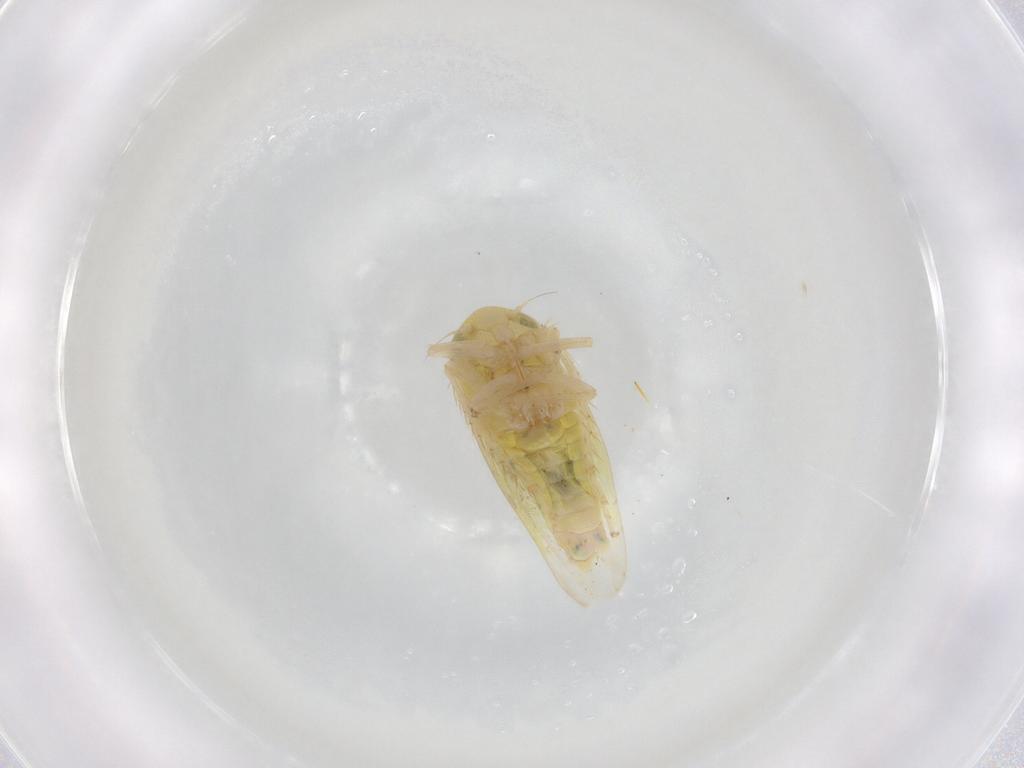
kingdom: Animalia
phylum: Arthropoda
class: Insecta
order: Hemiptera
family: Cicadellidae
